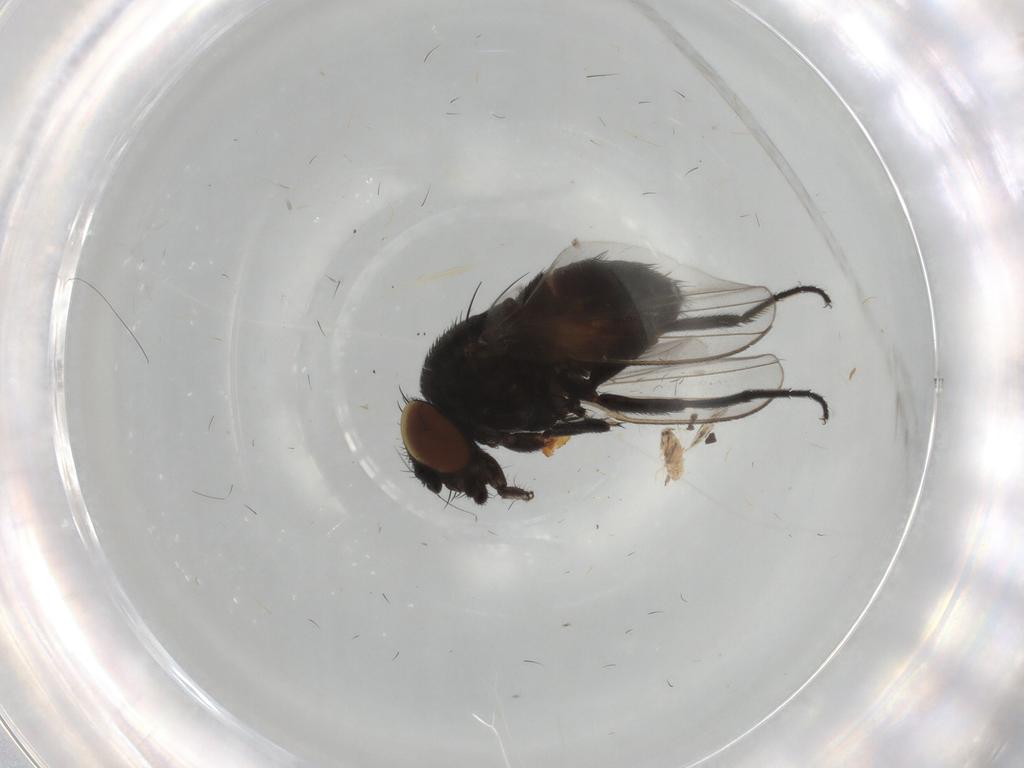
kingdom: Animalia
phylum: Arthropoda
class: Insecta
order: Diptera
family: Milichiidae
